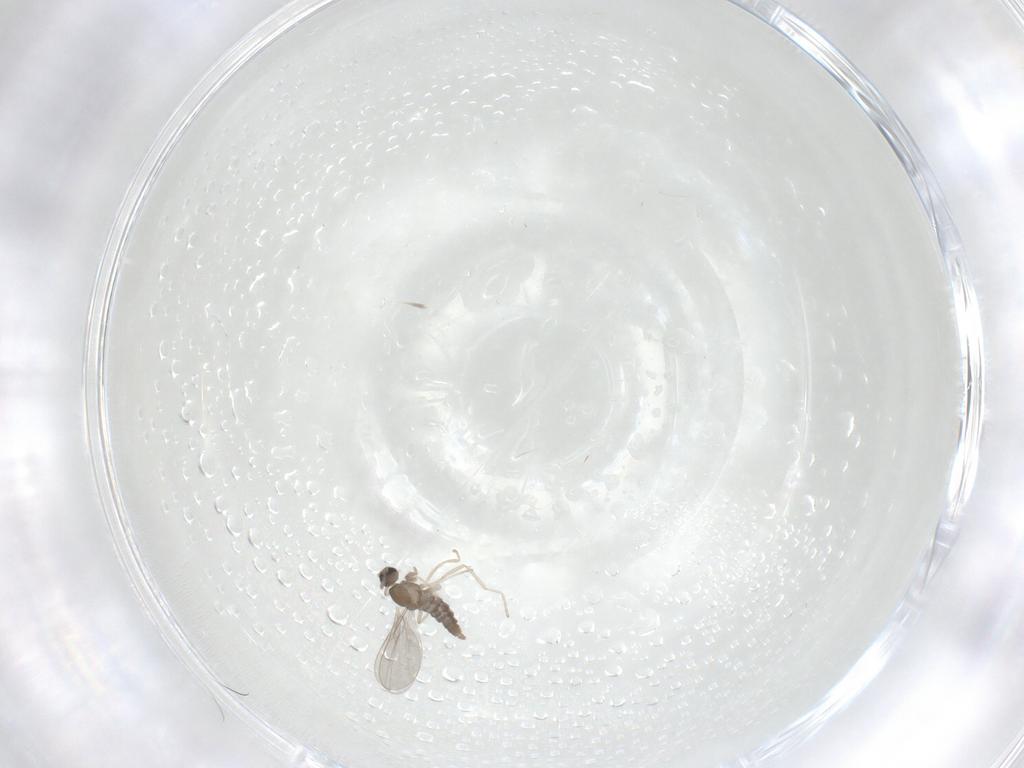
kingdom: Animalia
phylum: Arthropoda
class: Insecta
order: Diptera
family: Cecidomyiidae
